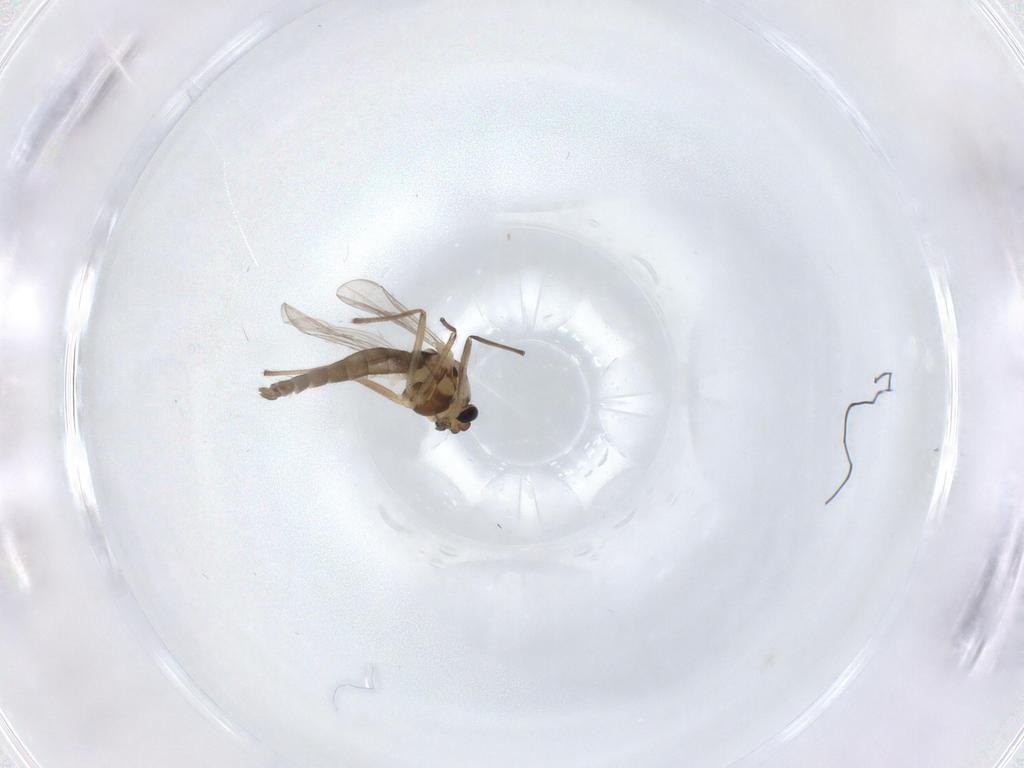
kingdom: Animalia
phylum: Arthropoda
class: Insecta
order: Diptera
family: Chironomidae
